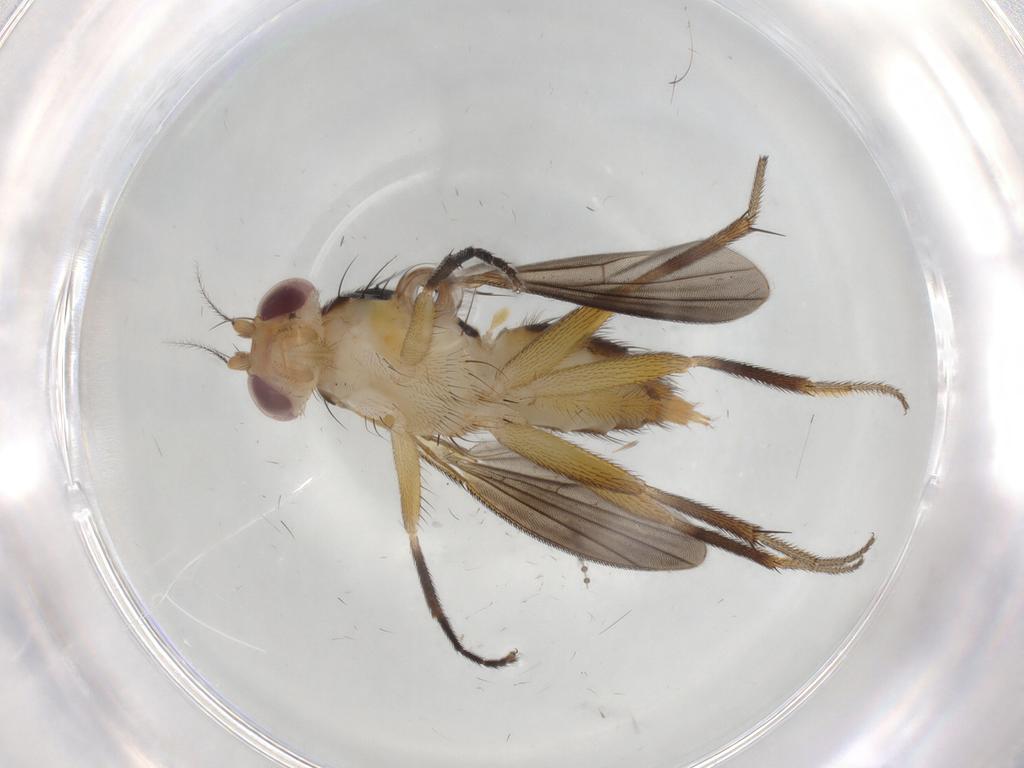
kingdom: Animalia
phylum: Arthropoda
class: Insecta
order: Diptera
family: Clusiidae
